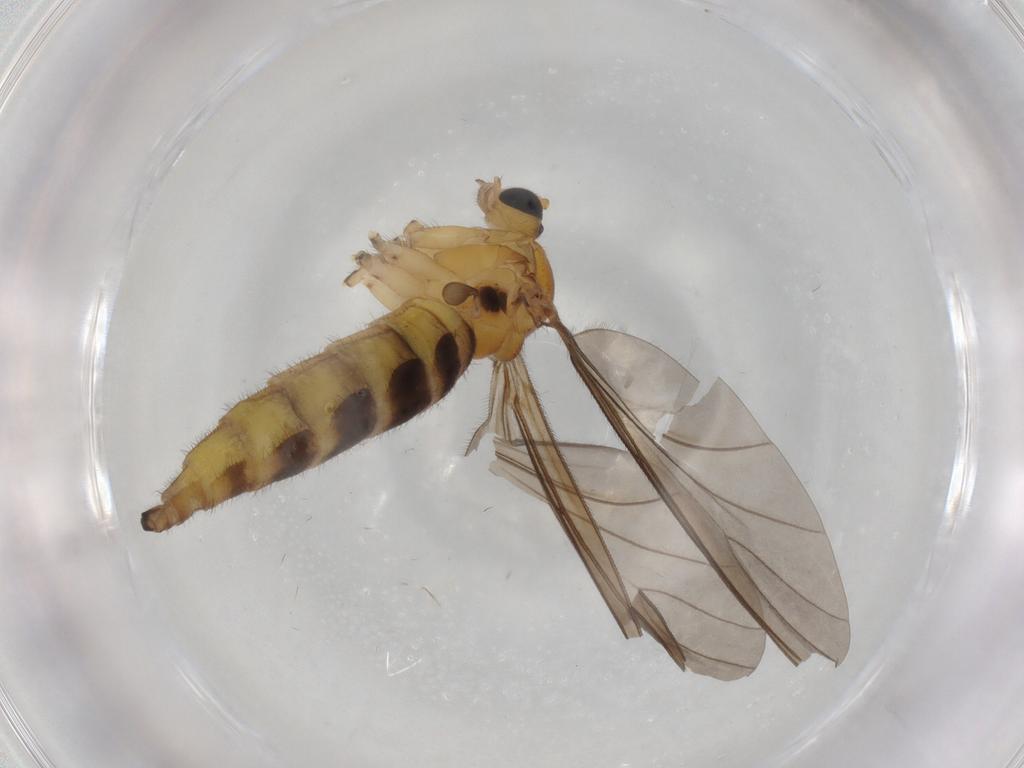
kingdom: Animalia
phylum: Arthropoda
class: Insecta
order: Diptera
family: Sciaridae
